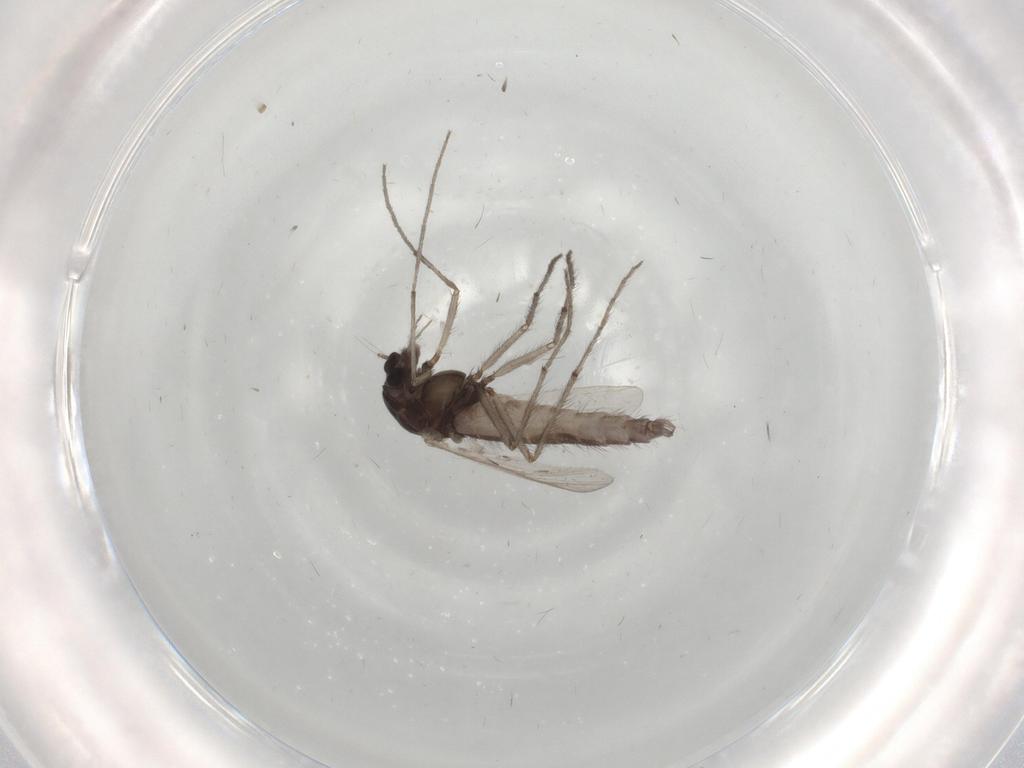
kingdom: Animalia
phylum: Arthropoda
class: Insecta
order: Diptera
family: Chironomidae
